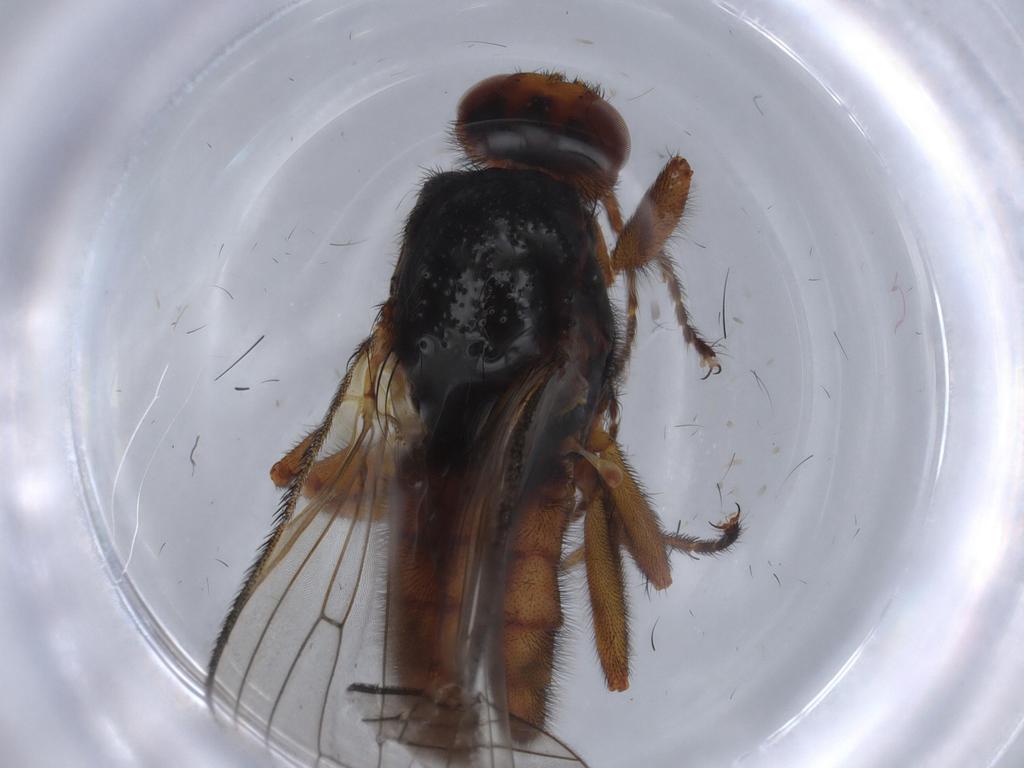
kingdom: Animalia
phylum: Arthropoda
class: Insecta
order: Diptera
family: Heleomyzidae
